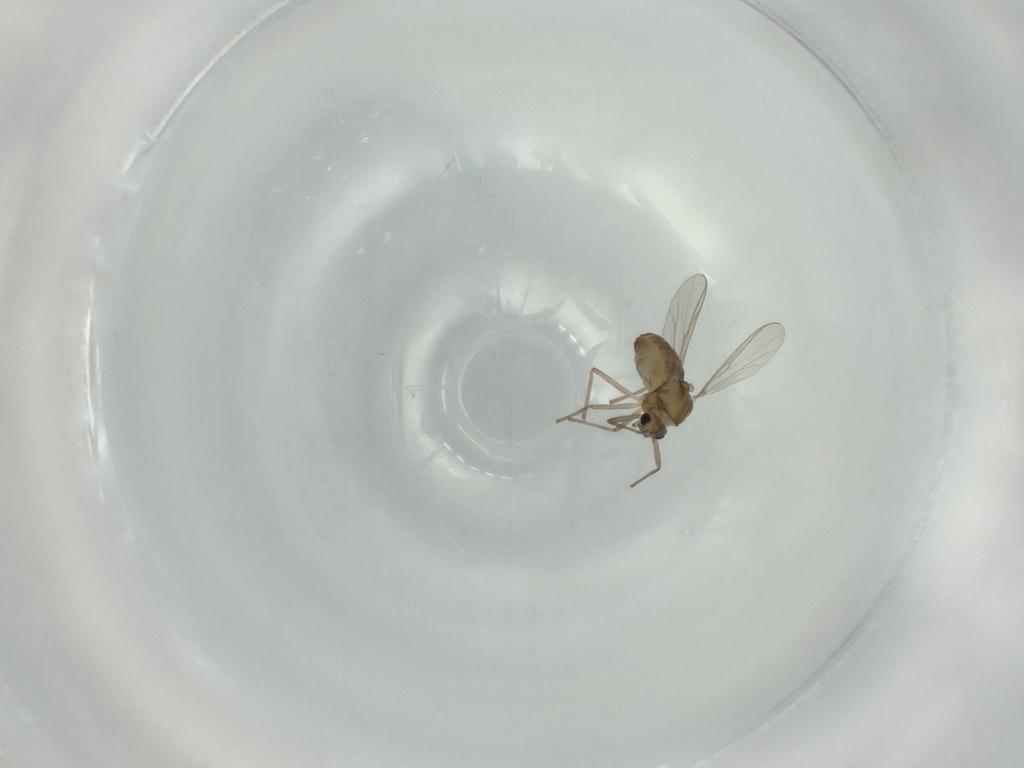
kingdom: Animalia
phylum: Arthropoda
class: Insecta
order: Diptera
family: Chironomidae
